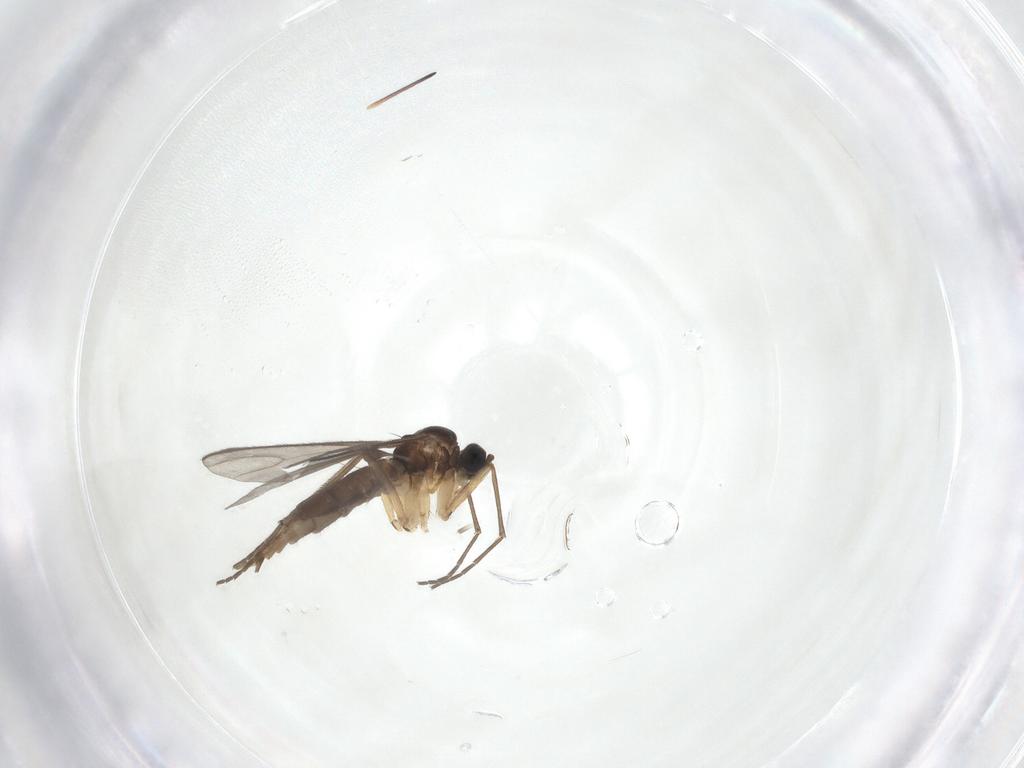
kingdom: Animalia
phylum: Arthropoda
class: Insecta
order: Diptera
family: Sciaridae
